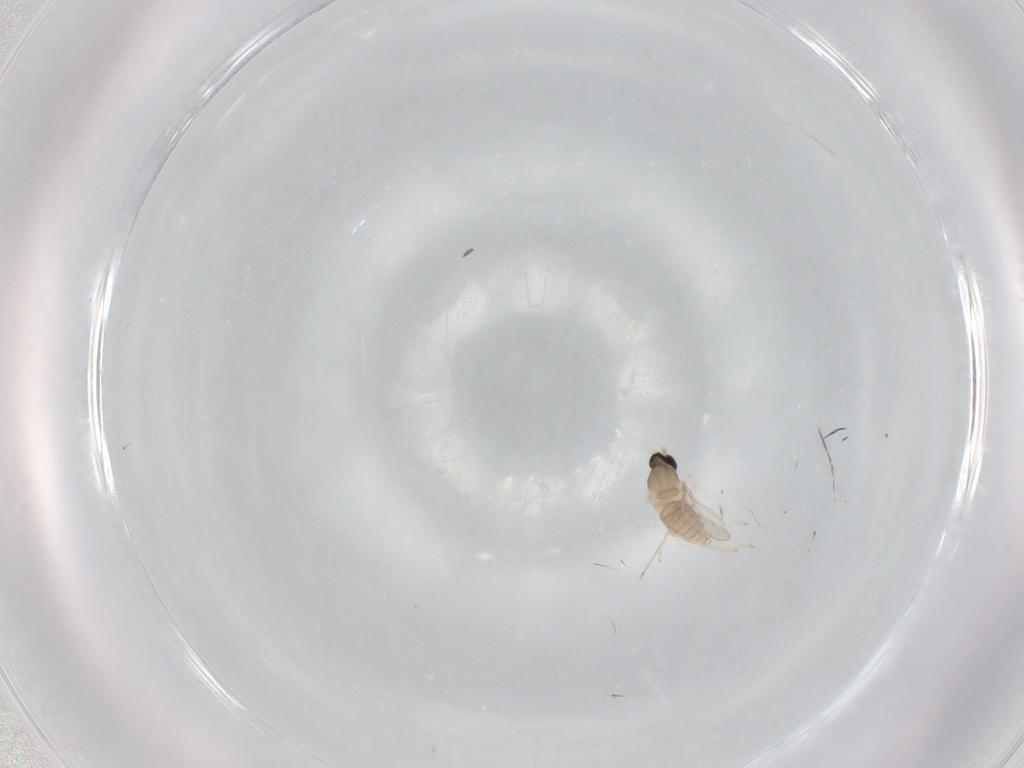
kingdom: Animalia
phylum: Arthropoda
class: Insecta
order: Diptera
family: Cecidomyiidae
